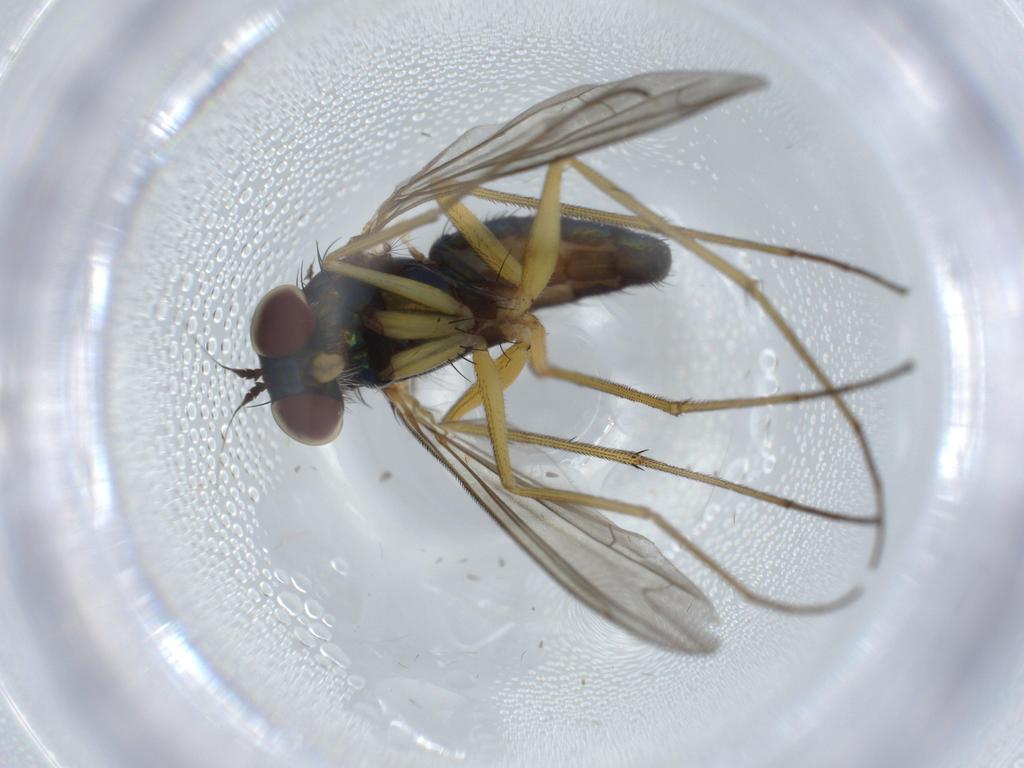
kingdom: Animalia
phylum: Arthropoda
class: Insecta
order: Diptera
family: Dolichopodidae
